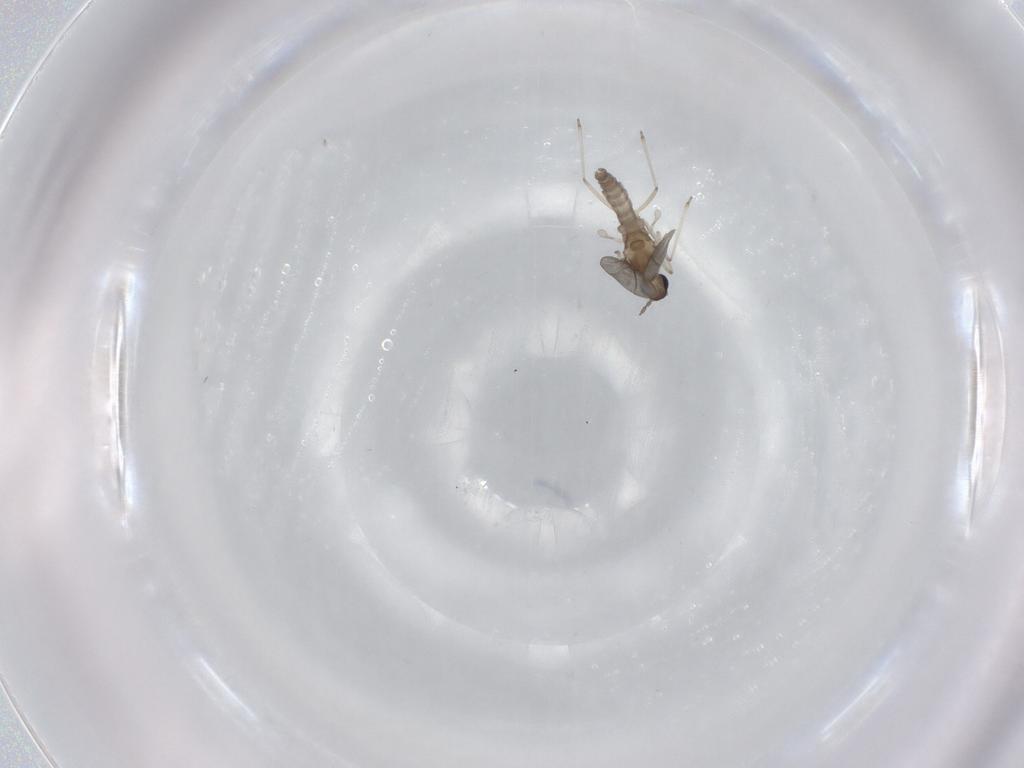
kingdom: Animalia
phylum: Arthropoda
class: Insecta
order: Diptera
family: Cecidomyiidae
